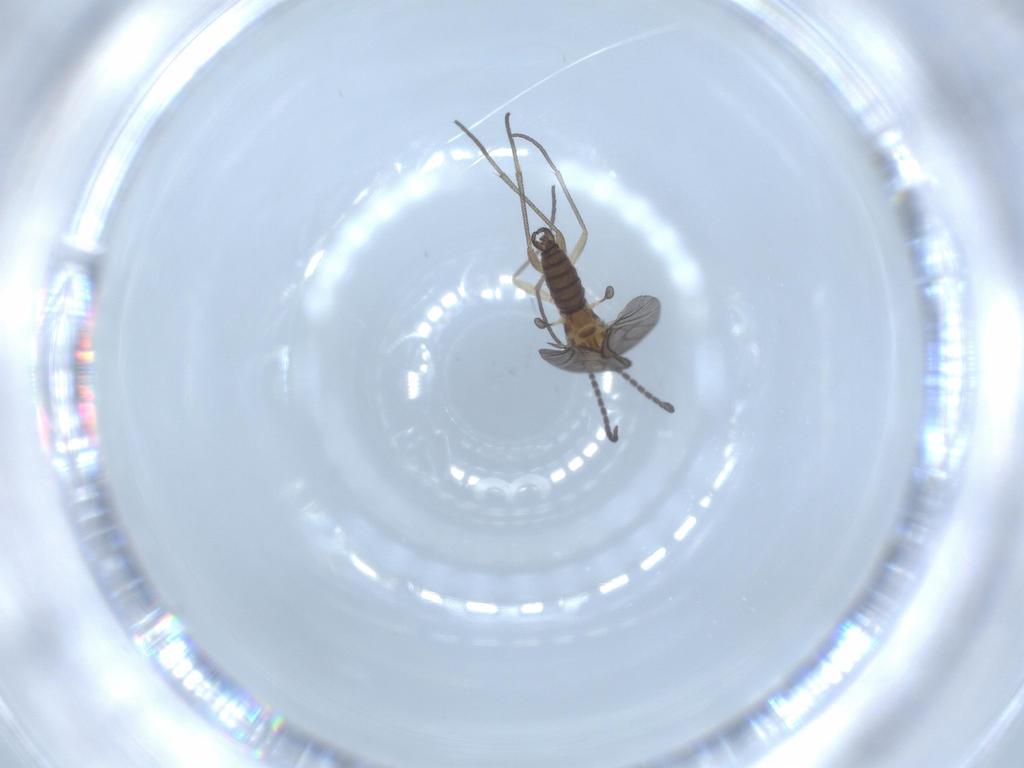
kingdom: Animalia
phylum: Arthropoda
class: Insecta
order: Diptera
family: Sciaridae
